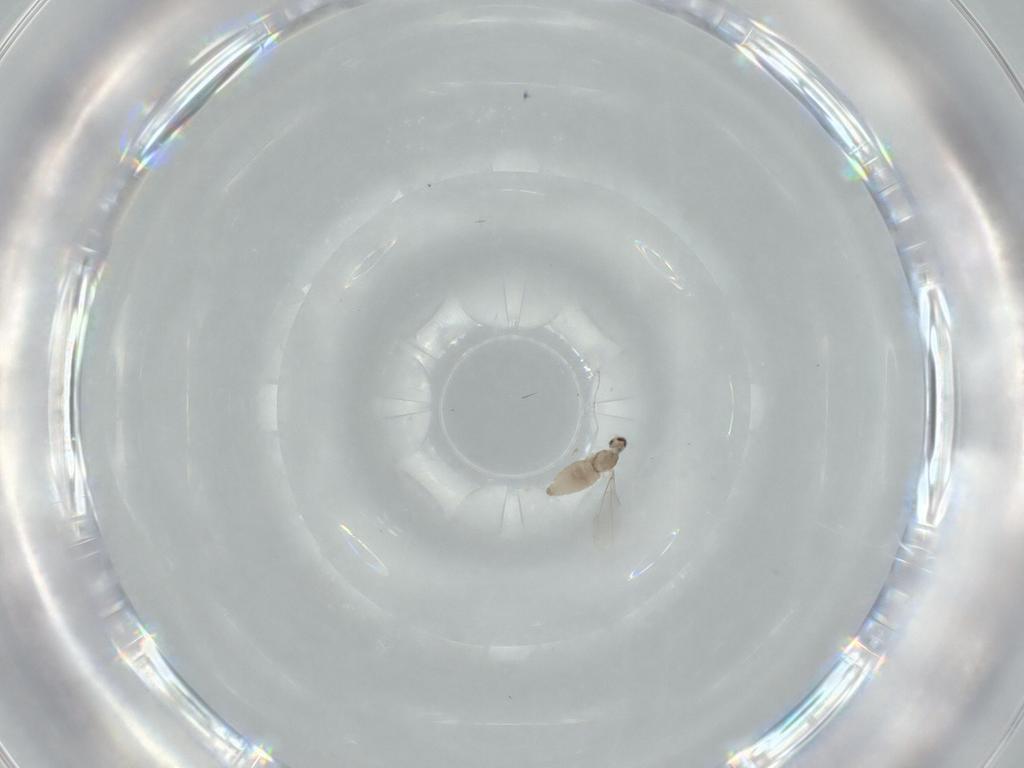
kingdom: Animalia
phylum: Arthropoda
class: Insecta
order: Diptera
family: Cecidomyiidae
